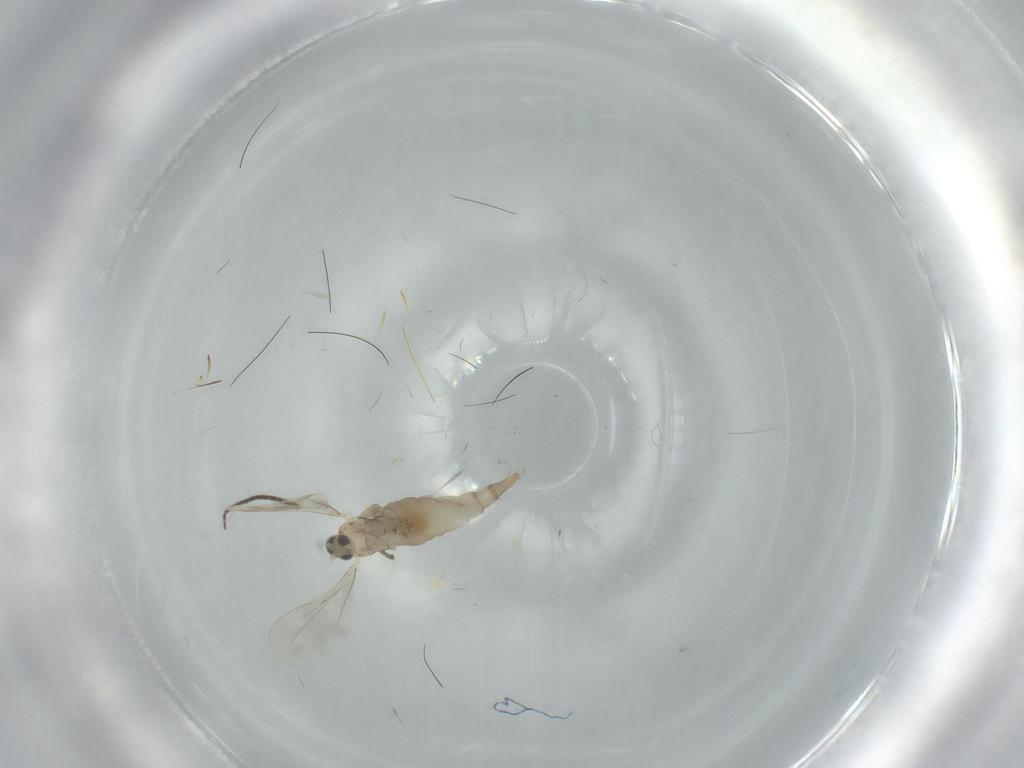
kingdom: Animalia
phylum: Arthropoda
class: Insecta
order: Diptera
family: Cecidomyiidae
